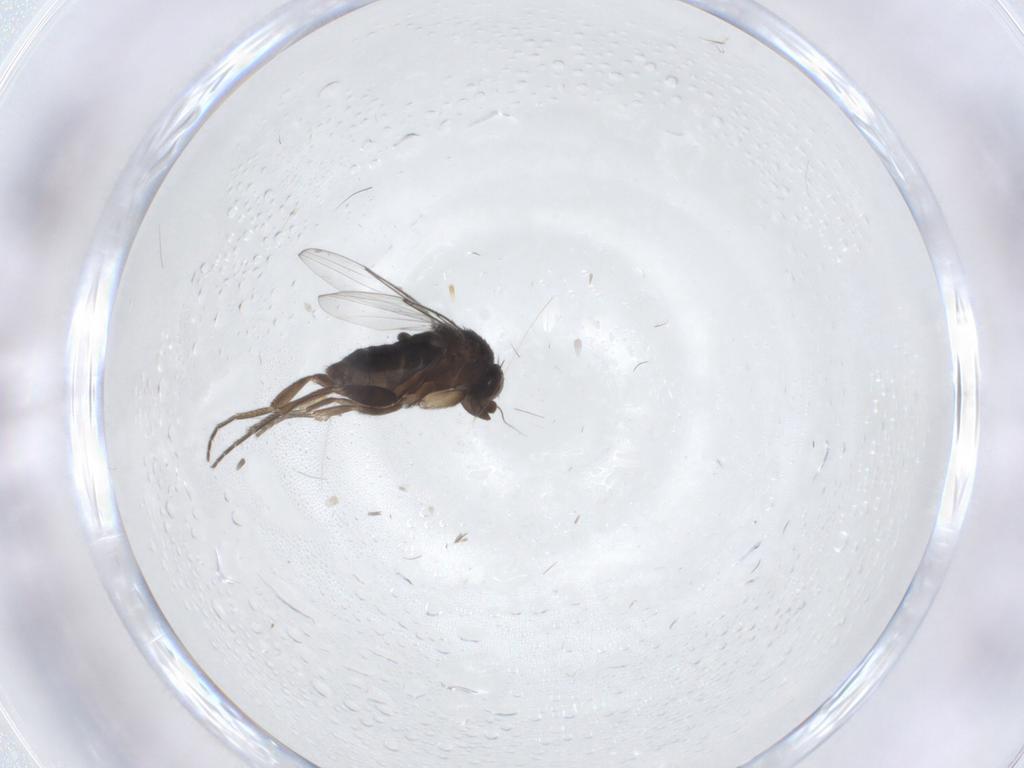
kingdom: Animalia
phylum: Arthropoda
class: Insecta
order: Diptera
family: Phoridae
